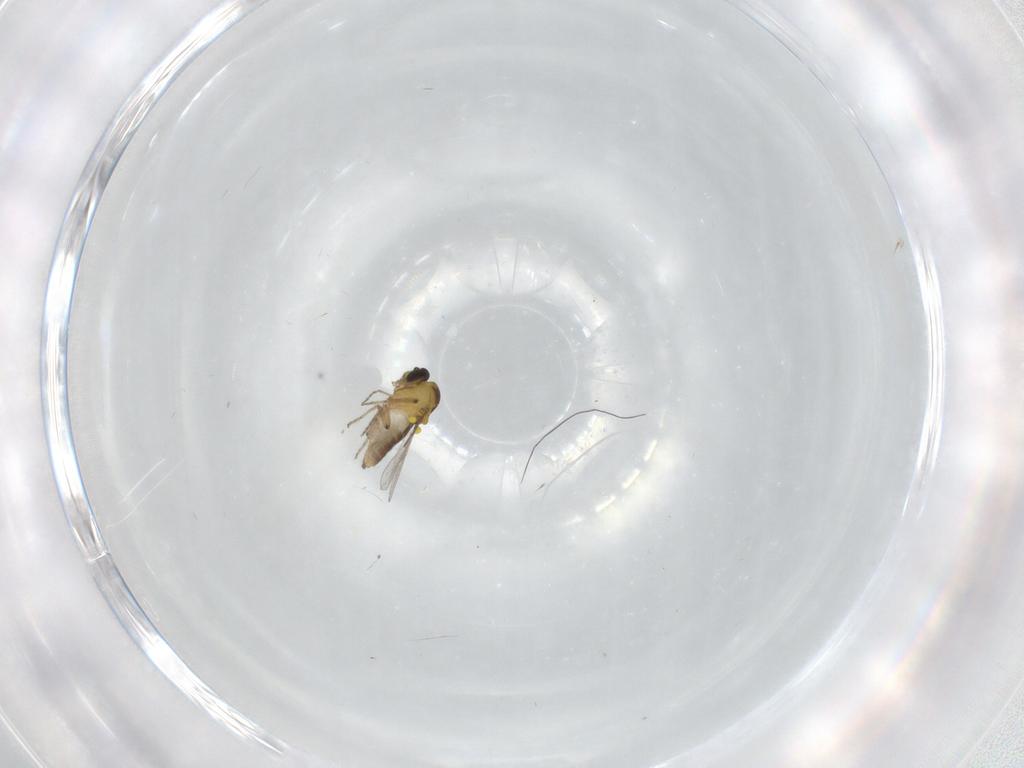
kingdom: Animalia
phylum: Arthropoda
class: Insecta
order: Diptera
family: Ceratopogonidae
